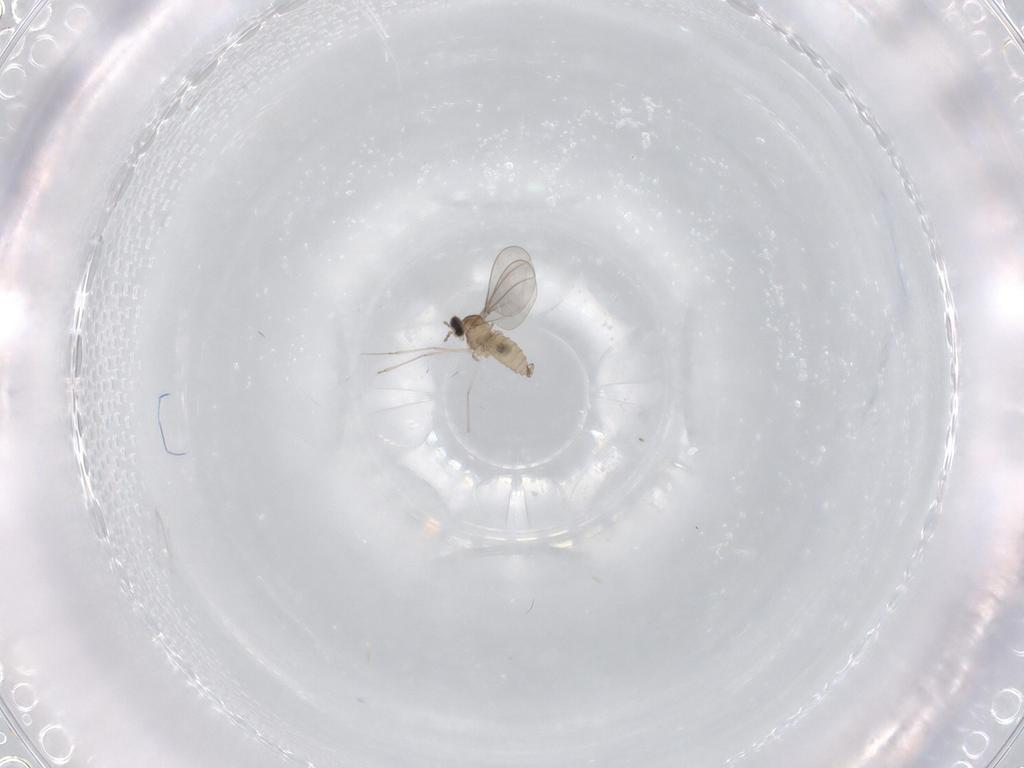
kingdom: Animalia
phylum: Arthropoda
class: Insecta
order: Diptera
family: Cecidomyiidae
